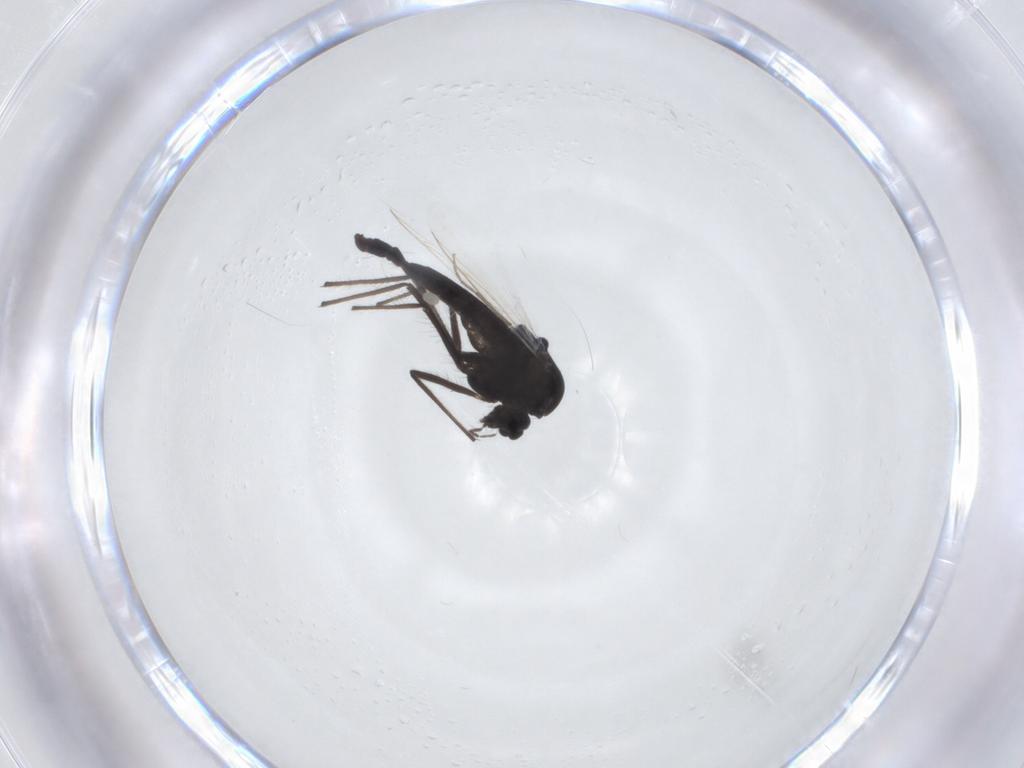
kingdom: Animalia
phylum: Arthropoda
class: Insecta
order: Diptera
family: Chironomidae
